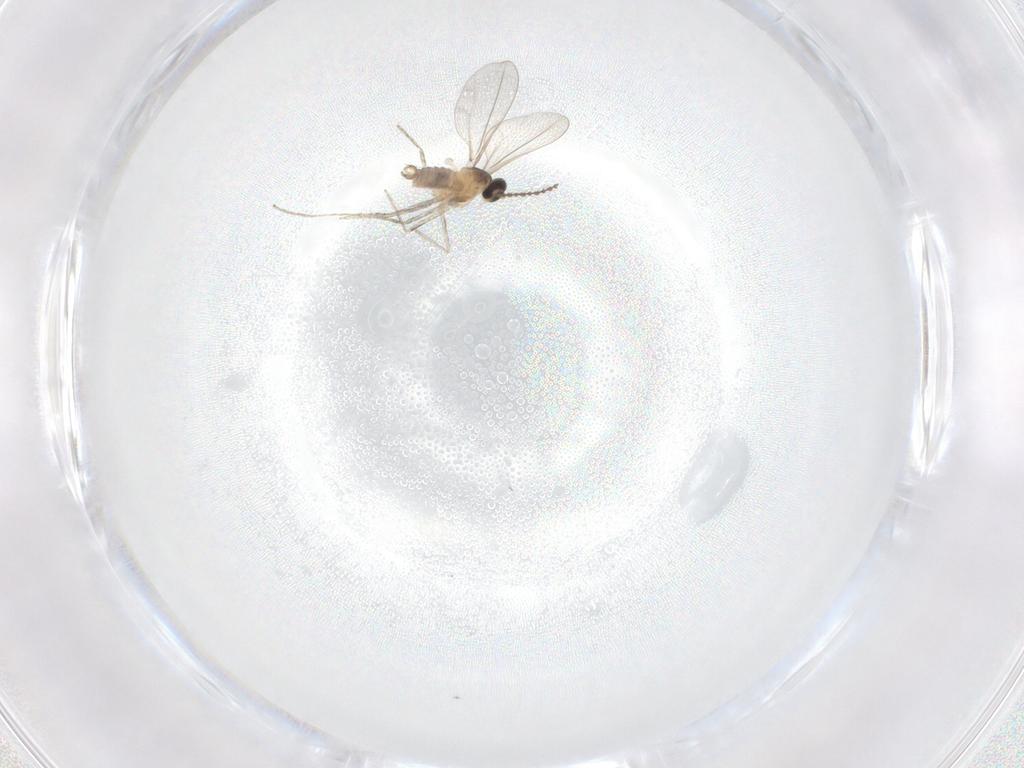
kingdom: Animalia
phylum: Arthropoda
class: Insecta
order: Diptera
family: Cecidomyiidae
